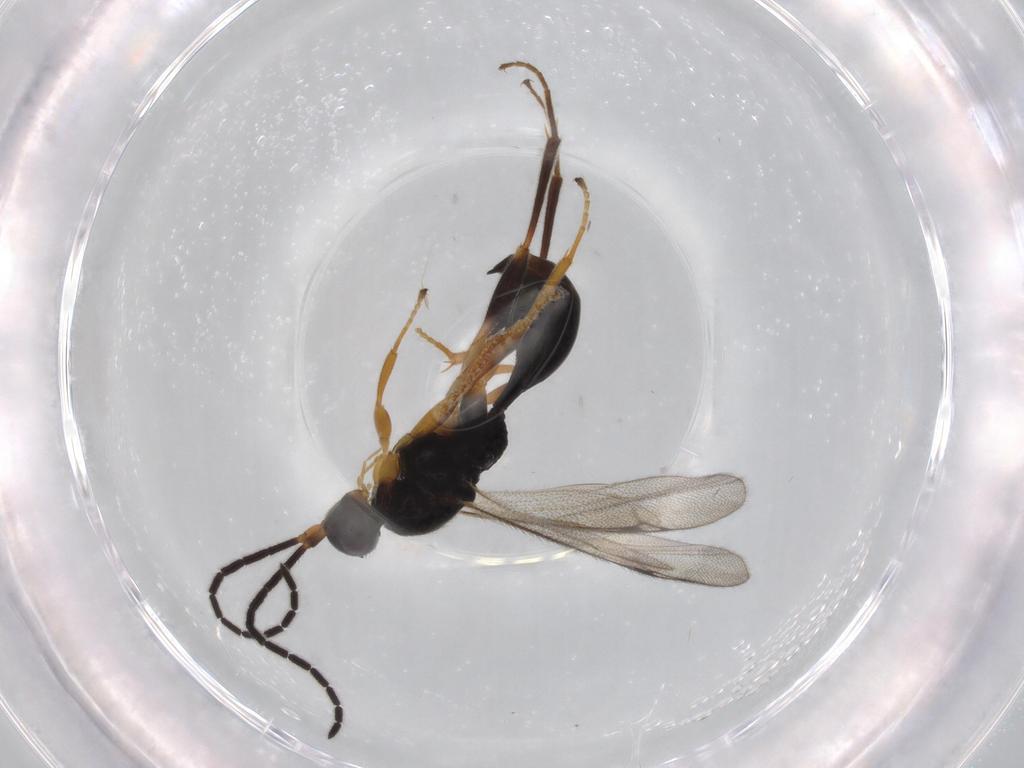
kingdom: Animalia
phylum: Arthropoda
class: Insecta
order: Hymenoptera
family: Proctotrupidae
